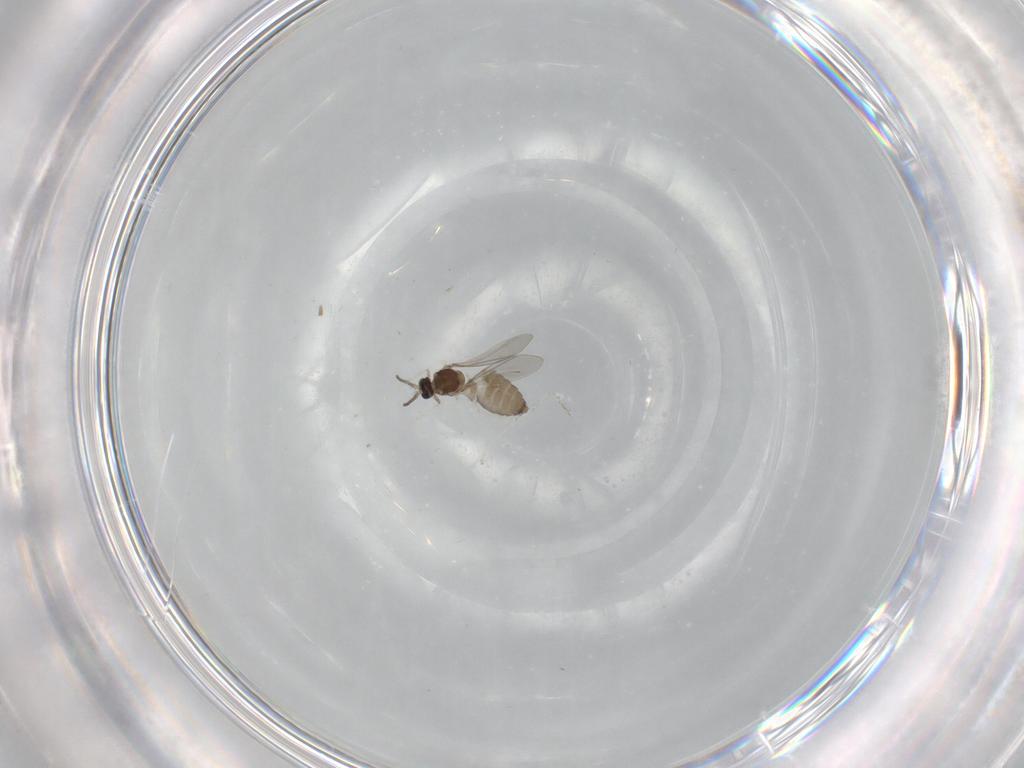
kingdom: Animalia
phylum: Arthropoda
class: Insecta
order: Diptera
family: Cecidomyiidae
